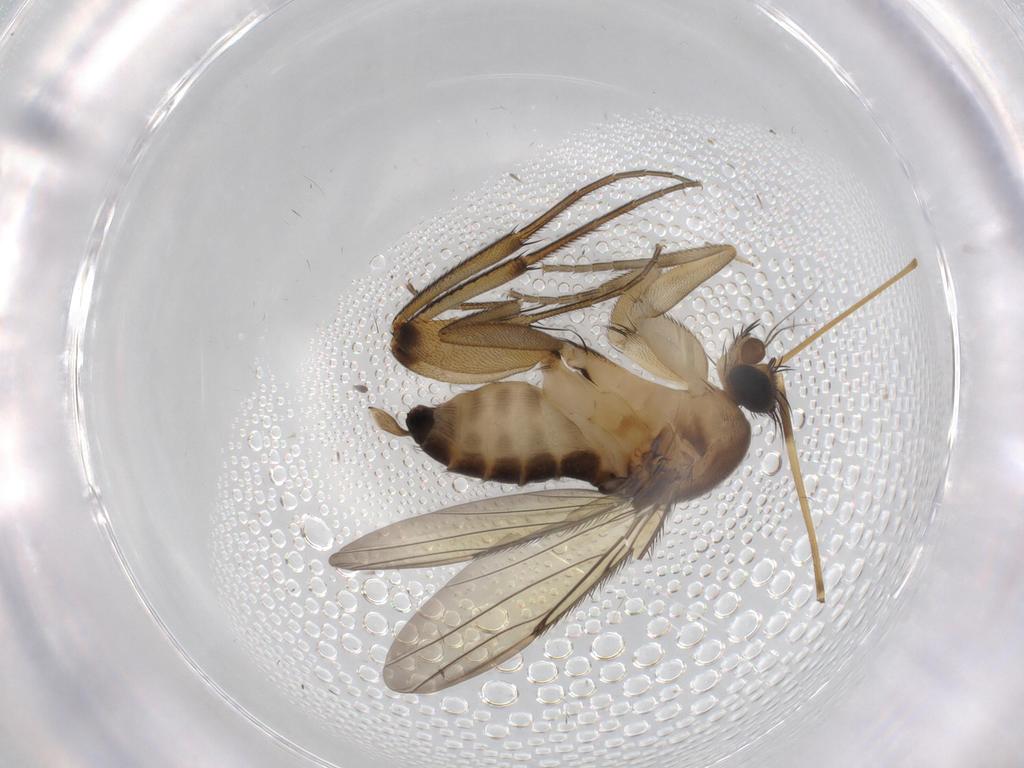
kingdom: Animalia
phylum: Arthropoda
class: Insecta
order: Diptera
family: Phoridae
